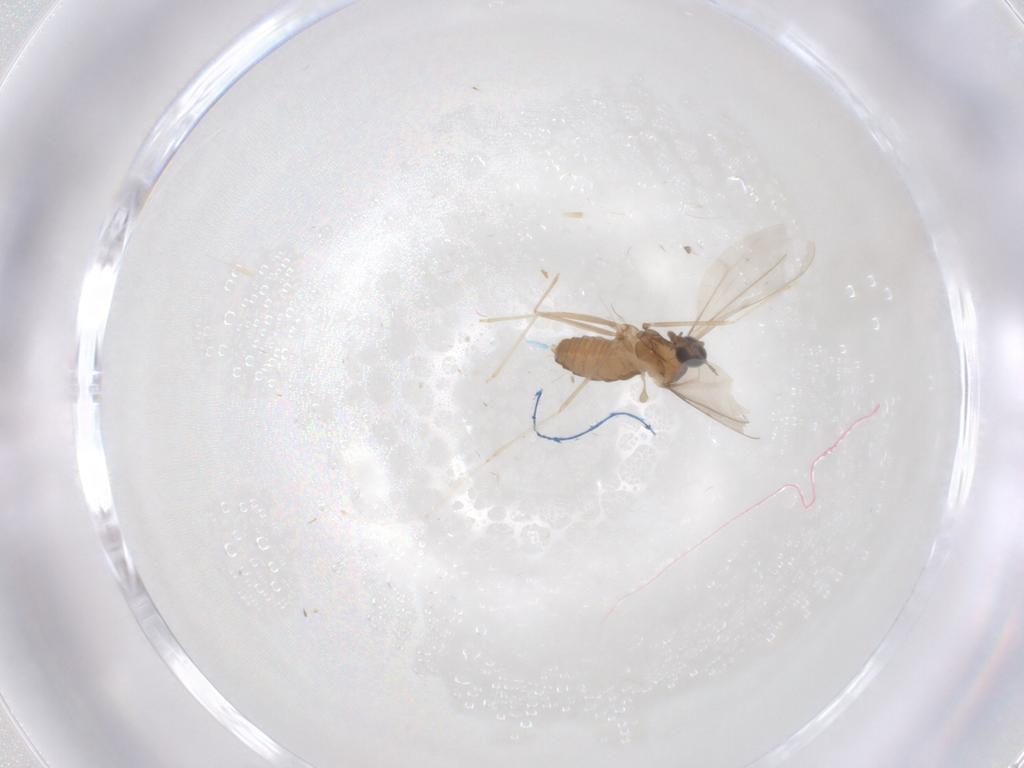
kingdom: Animalia
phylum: Arthropoda
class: Insecta
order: Diptera
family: Cecidomyiidae
